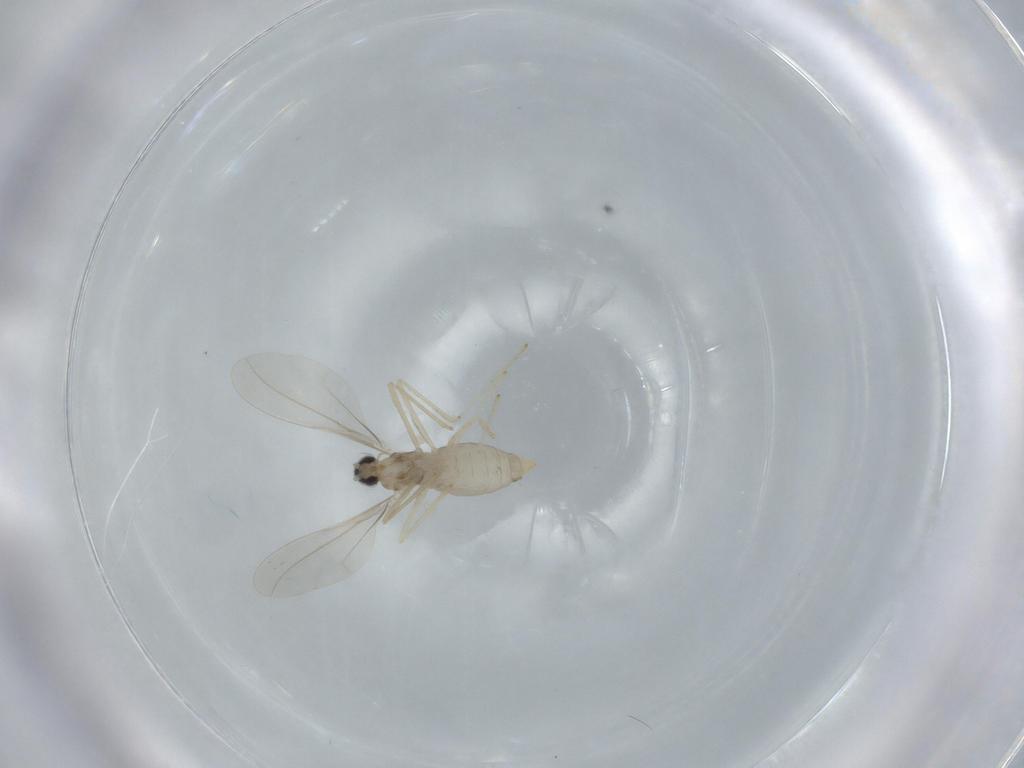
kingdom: Animalia
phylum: Arthropoda
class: Insecta
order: Diptera
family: Cecidomyiidae
